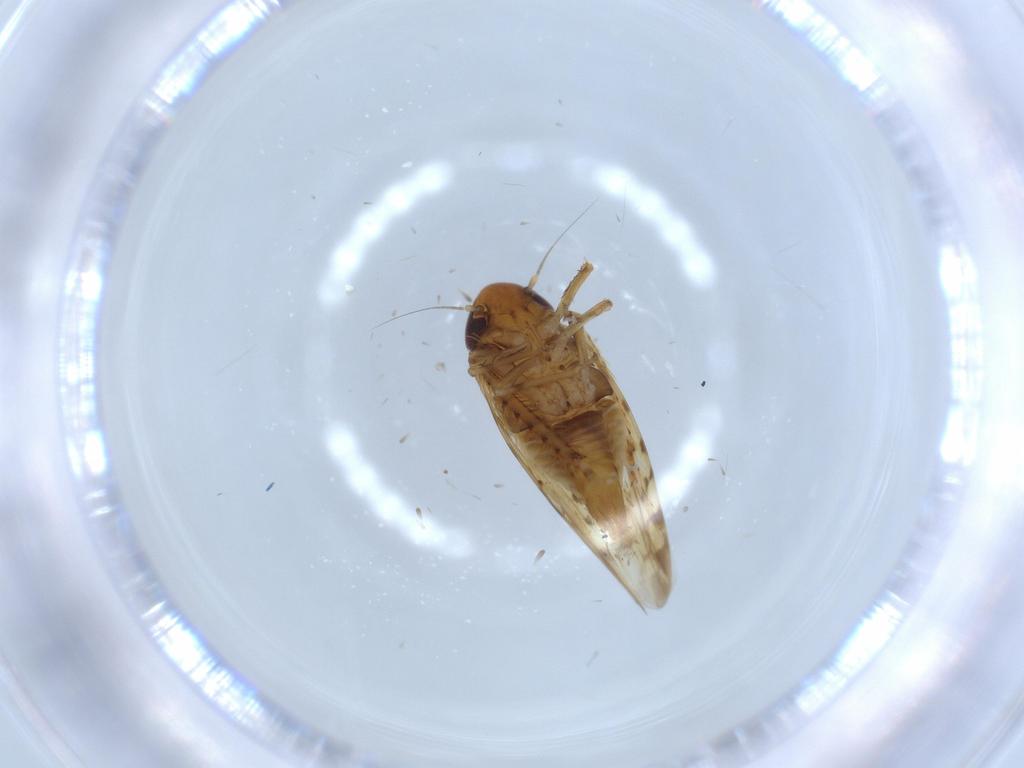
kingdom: Animalia
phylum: Arthropoda
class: Insecta
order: Hemiptera
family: Cicadellidae
